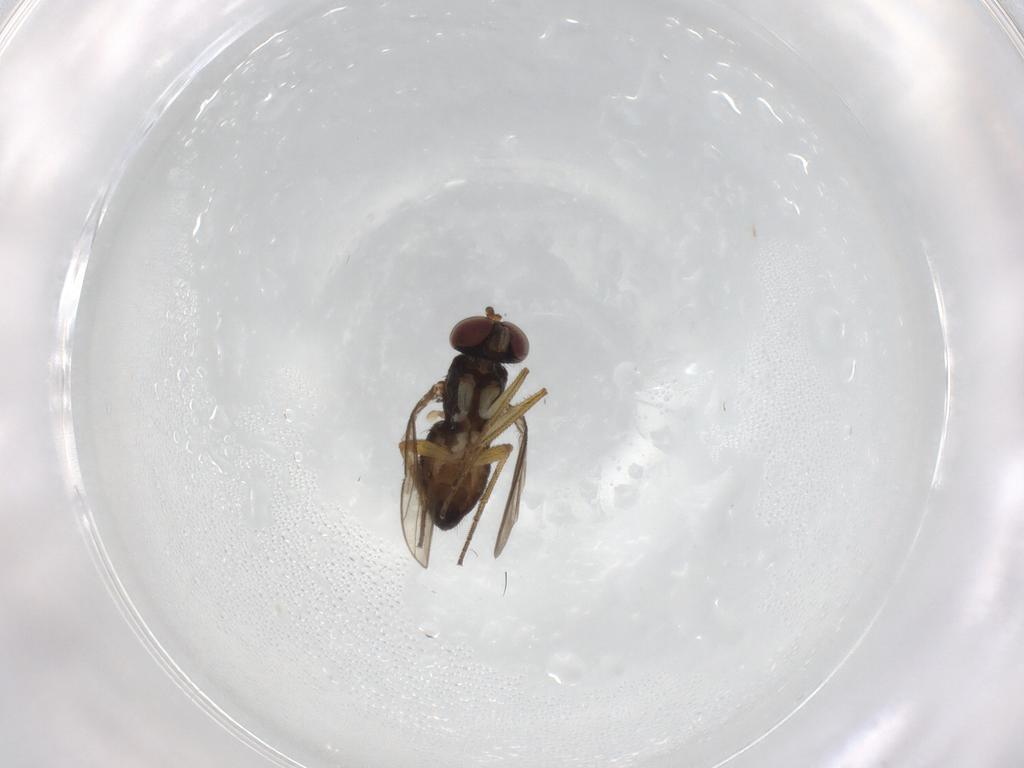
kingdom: Animalia
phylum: Arthropoda
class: Insecta
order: Diptera
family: Dolichopodidae
